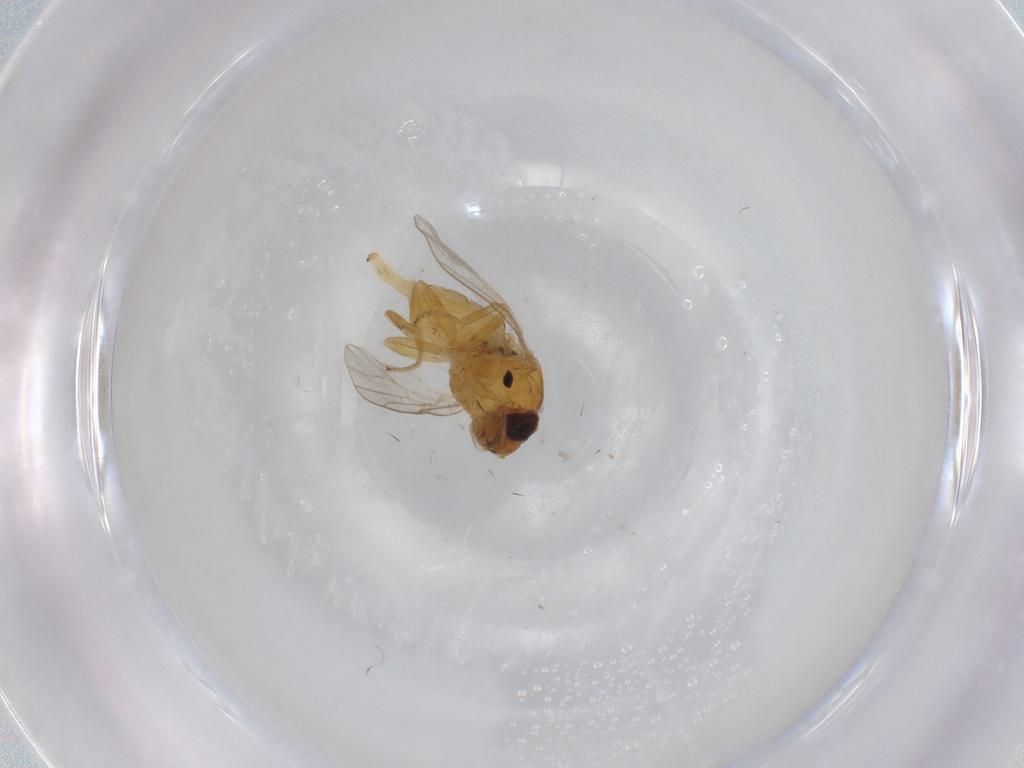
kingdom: Animalia
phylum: Arthropoda
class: Insecta
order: Diptera
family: Chloropidae
